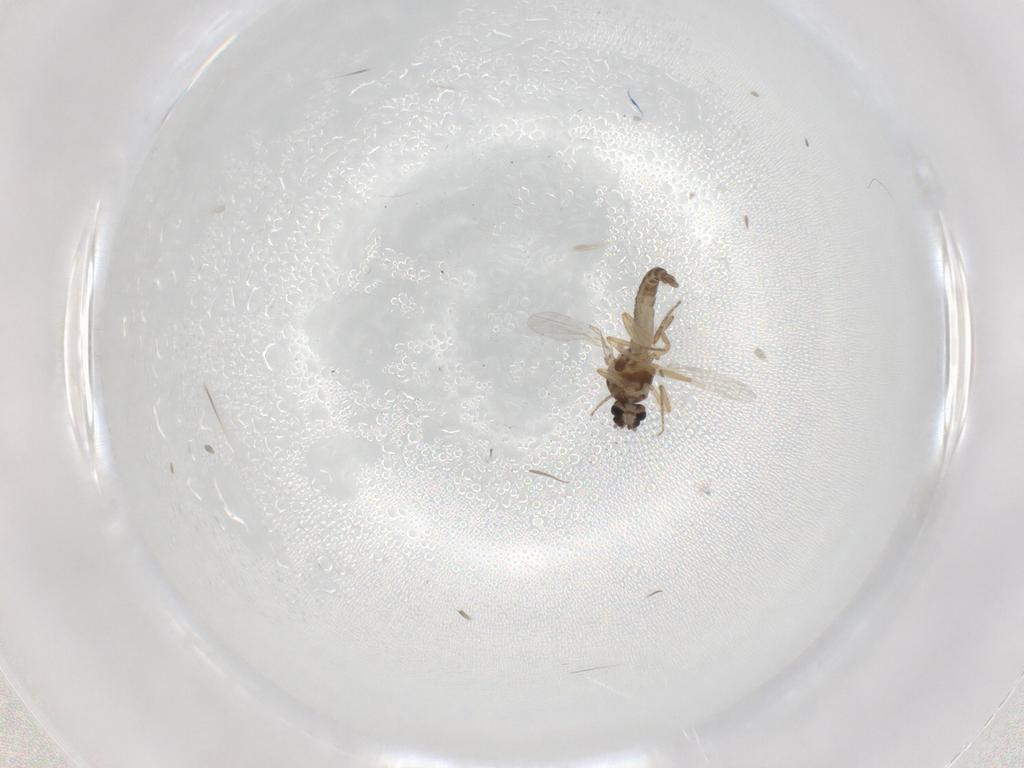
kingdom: Animalia
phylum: Arthropoda
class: Insecta
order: Diptera
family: Ceratopogonidae
